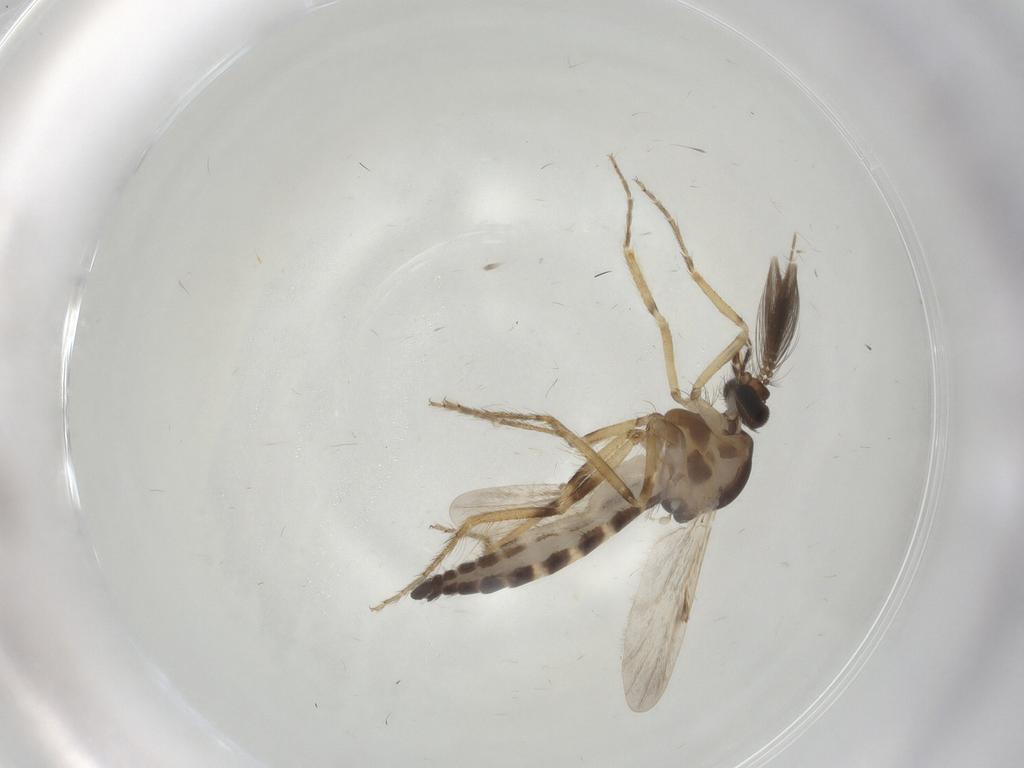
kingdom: Animalia
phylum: Arthropoda
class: Insecta
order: Diptera
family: Ceratopogonidae
